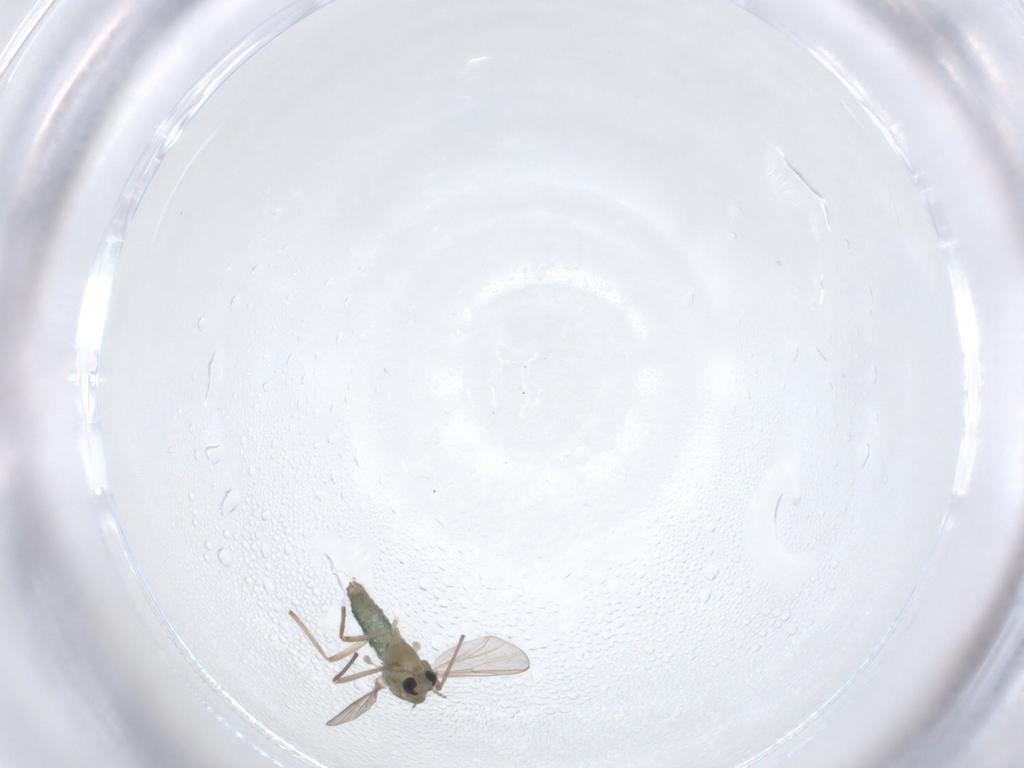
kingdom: Animalia
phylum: Arthropoda
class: Insecta
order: Diptera
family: Chironomidae
